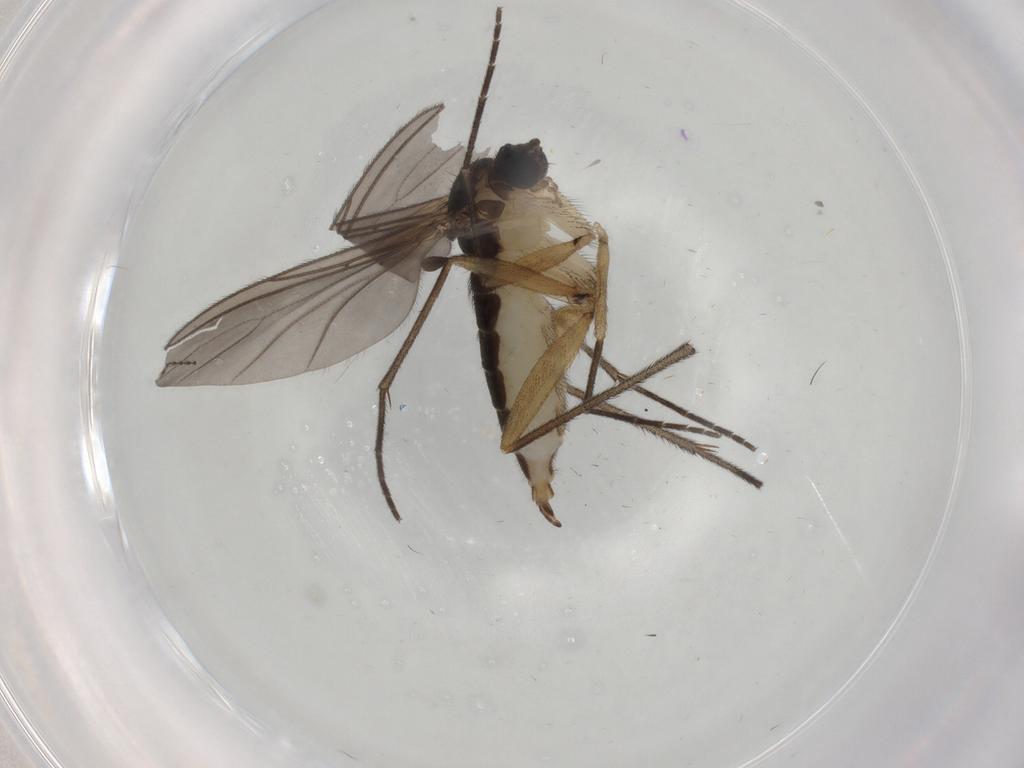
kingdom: Animalia
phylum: Arthropoda
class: Insecta
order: Diptera
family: Sciaridae
